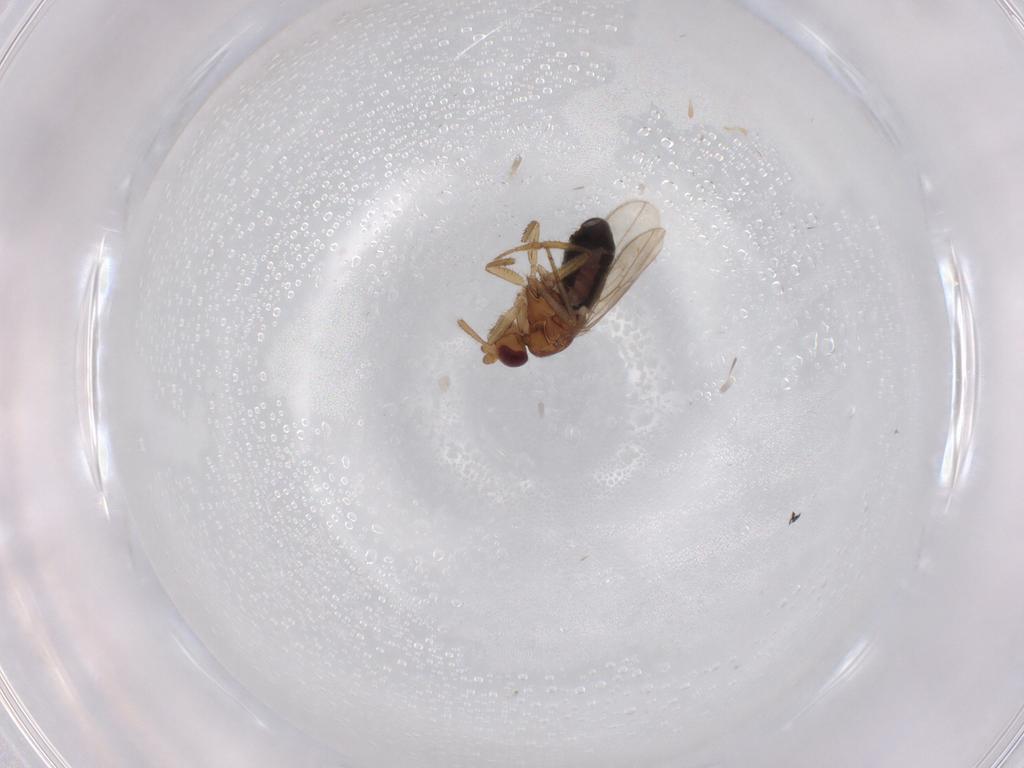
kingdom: Animalia
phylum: Arthropoda
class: Insecta
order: Diptera
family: Sphaeroceridae
